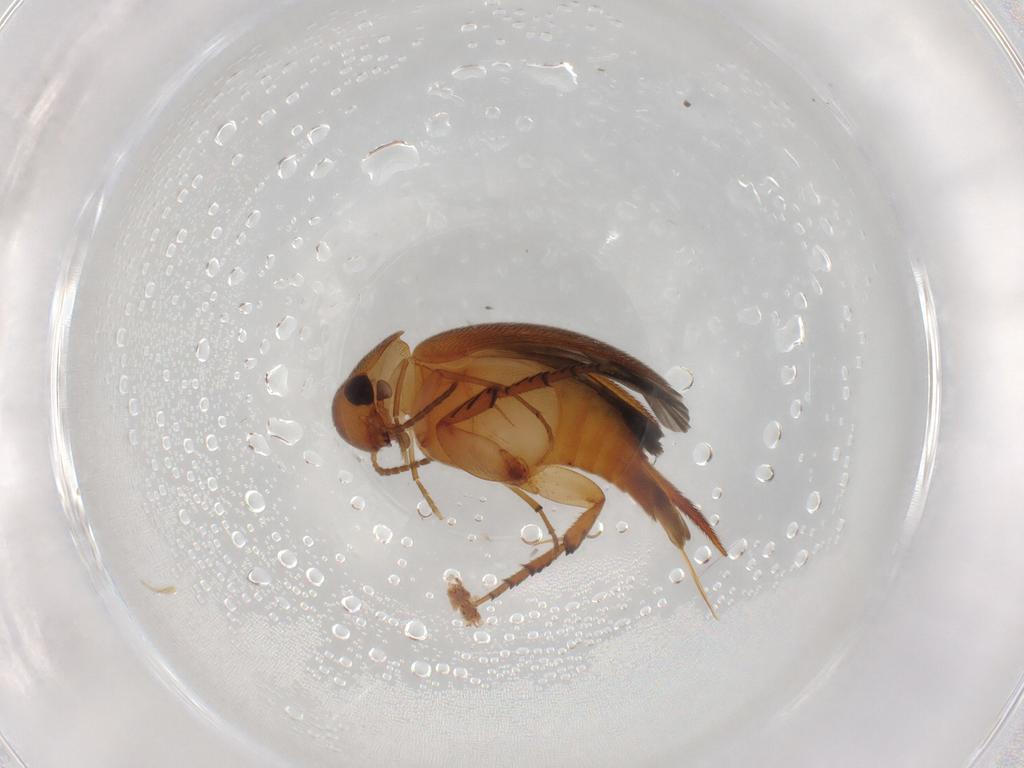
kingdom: Animalia
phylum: Arthropoda
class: Insecta
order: Coleoptera
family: Mordellidae
